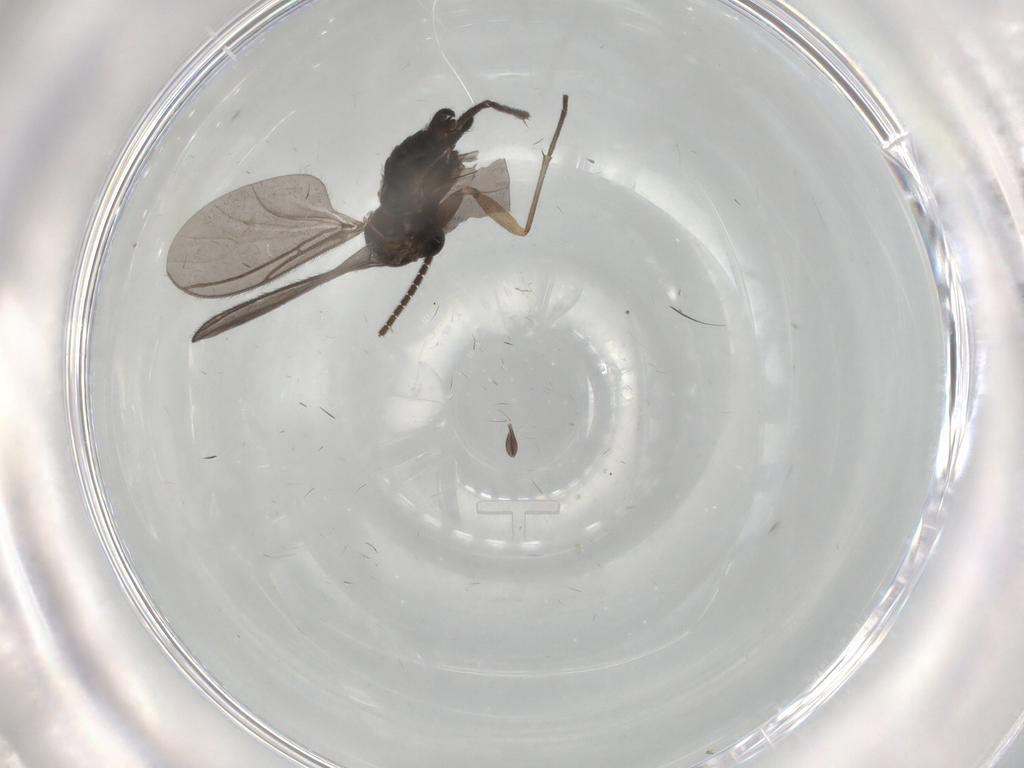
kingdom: Animalia
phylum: Arthropoda
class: Insecta
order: Diptera
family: Sciaridae
